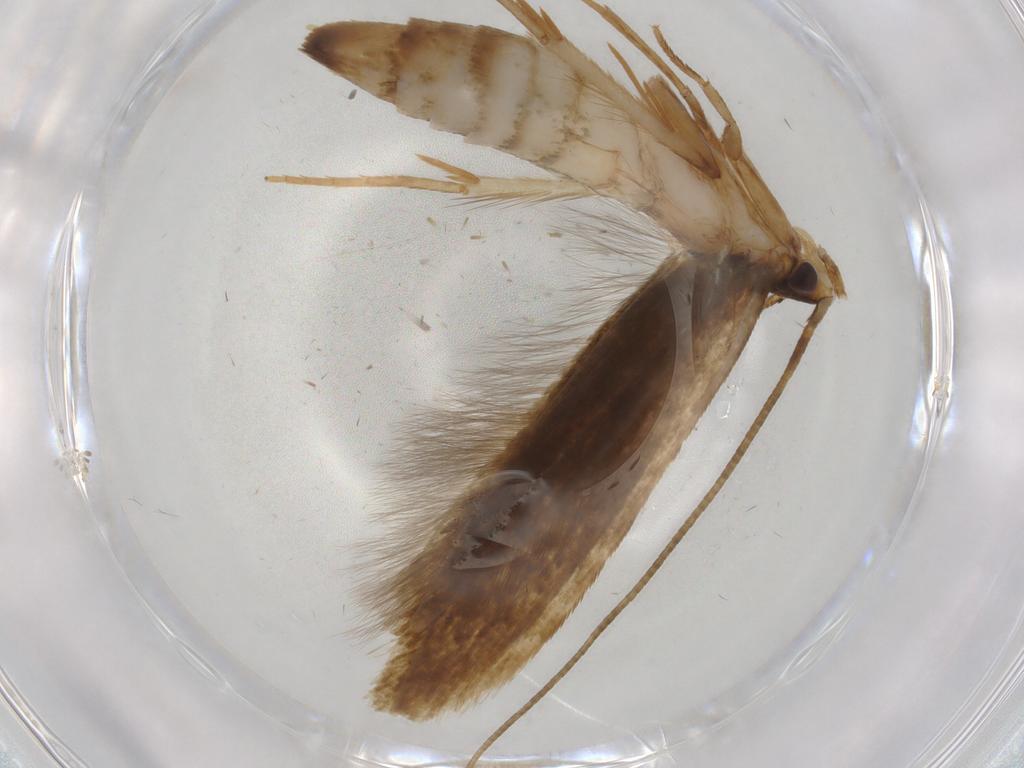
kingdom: Animalia
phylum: Arthropoda
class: Insecta
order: Lepidoptera
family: Tineidae
